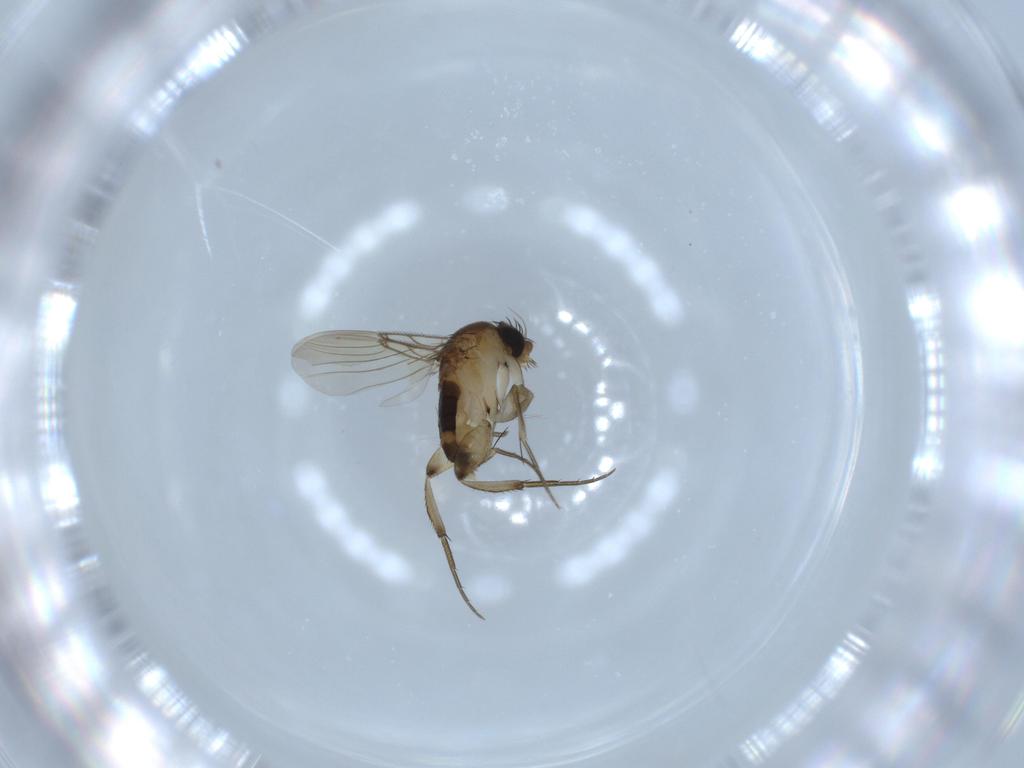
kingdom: Animalia
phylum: Arthropoda
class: Insecta
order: Diptera
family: Phoridae
